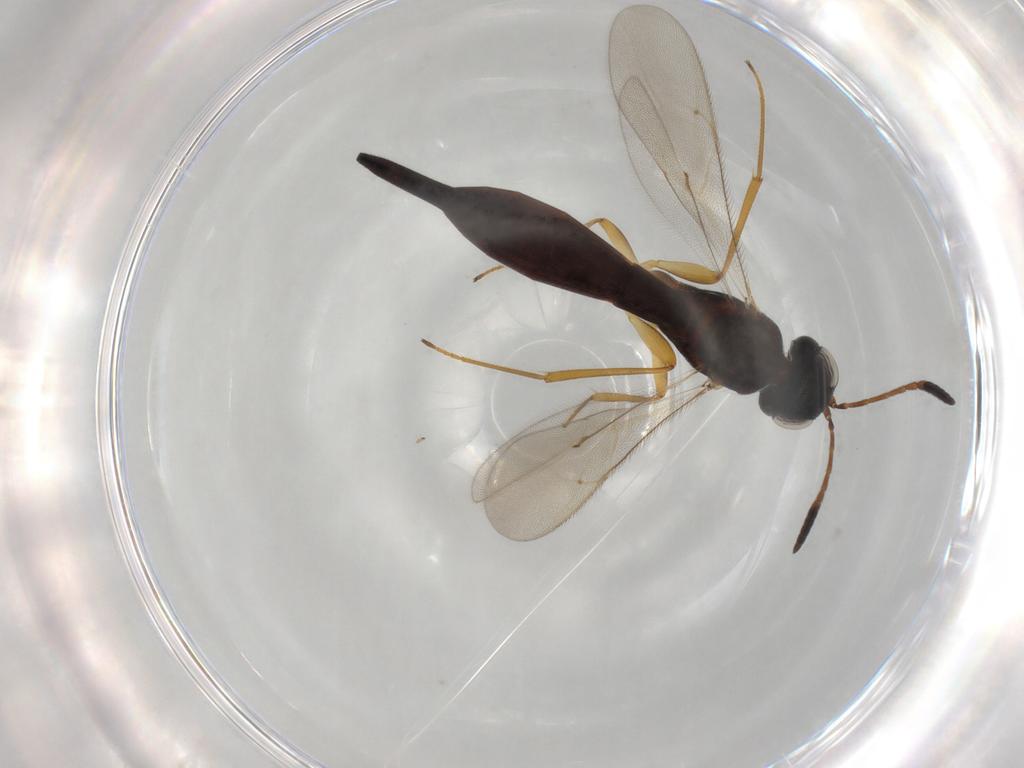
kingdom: Animalia
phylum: Arthropoda
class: Insecta
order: Hymenoptera
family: Scelionidae
